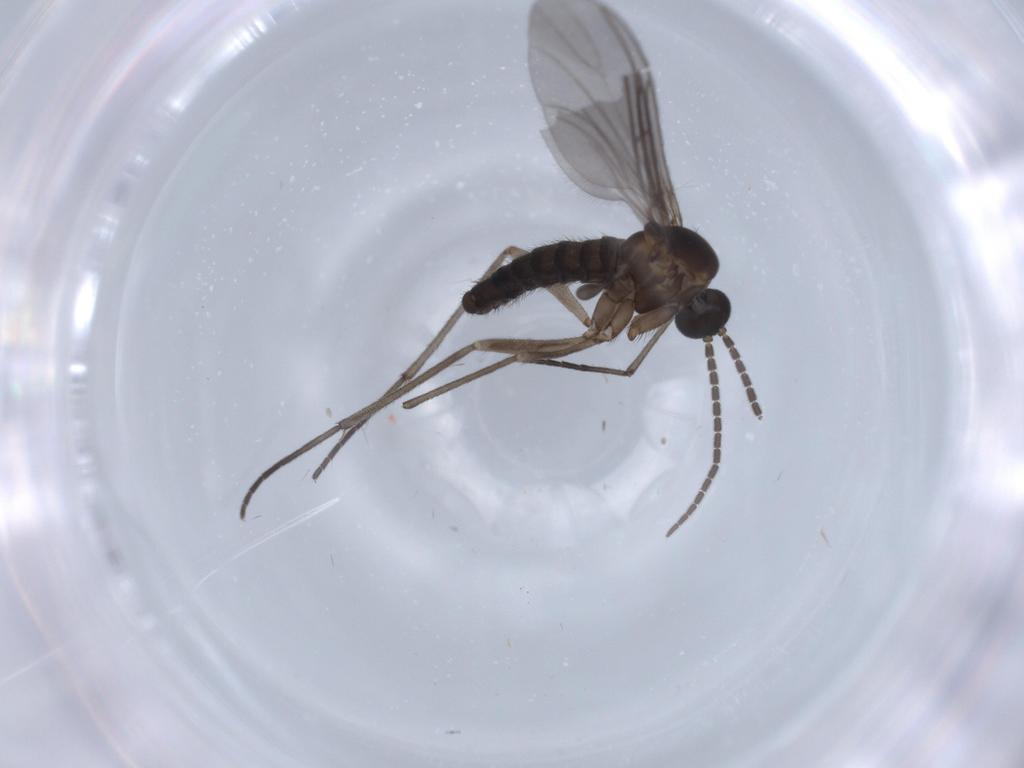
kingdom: Animalia
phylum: Arthropoda
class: Insecta
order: Diptera
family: Sciaridae
